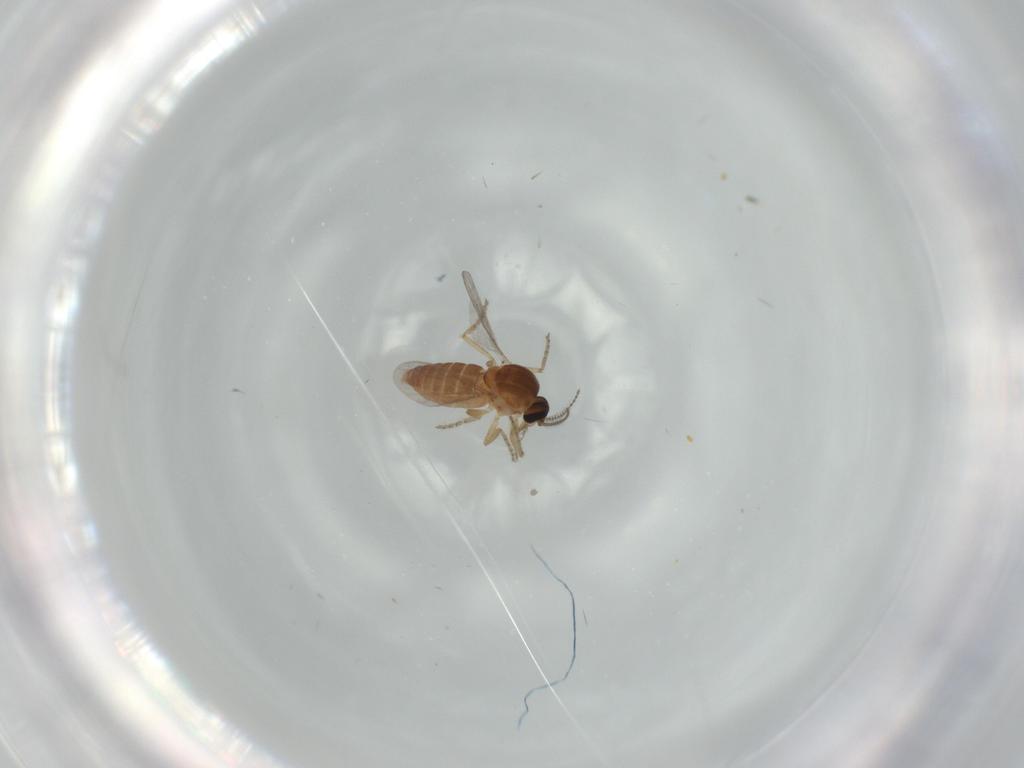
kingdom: Animalia
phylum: Arthropoda
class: Insecta
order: Diptera
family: Ceratopogonidae
